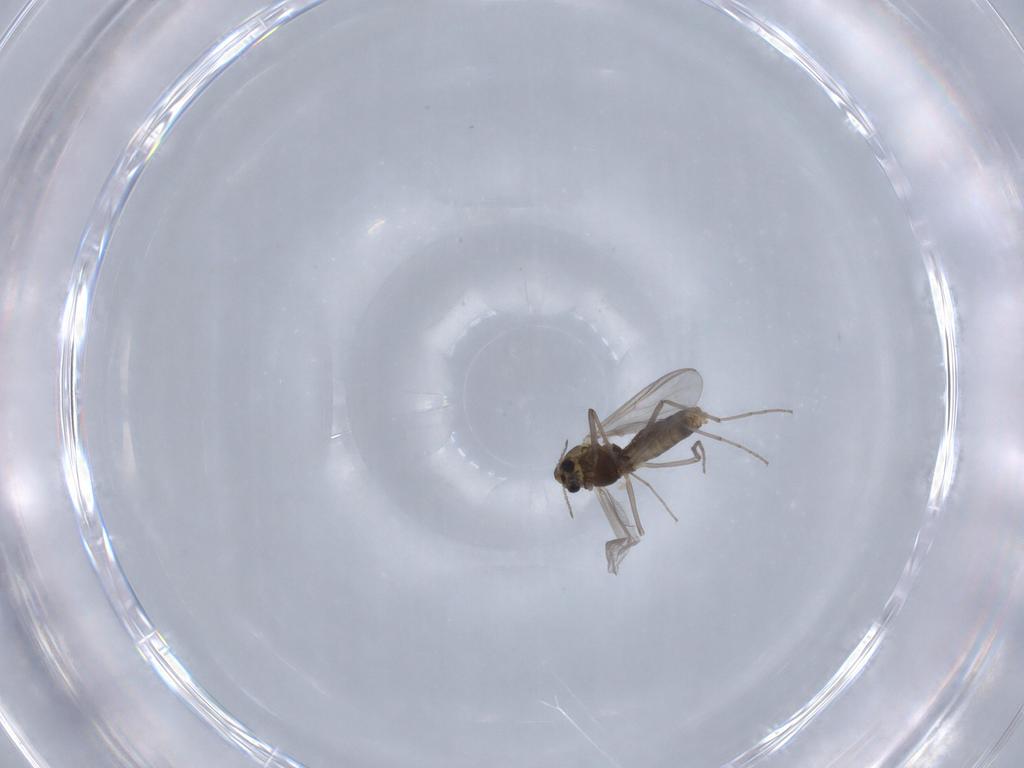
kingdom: Animalia
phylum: Arthropoda
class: Insecta
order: Diptera
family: Chironomidae
